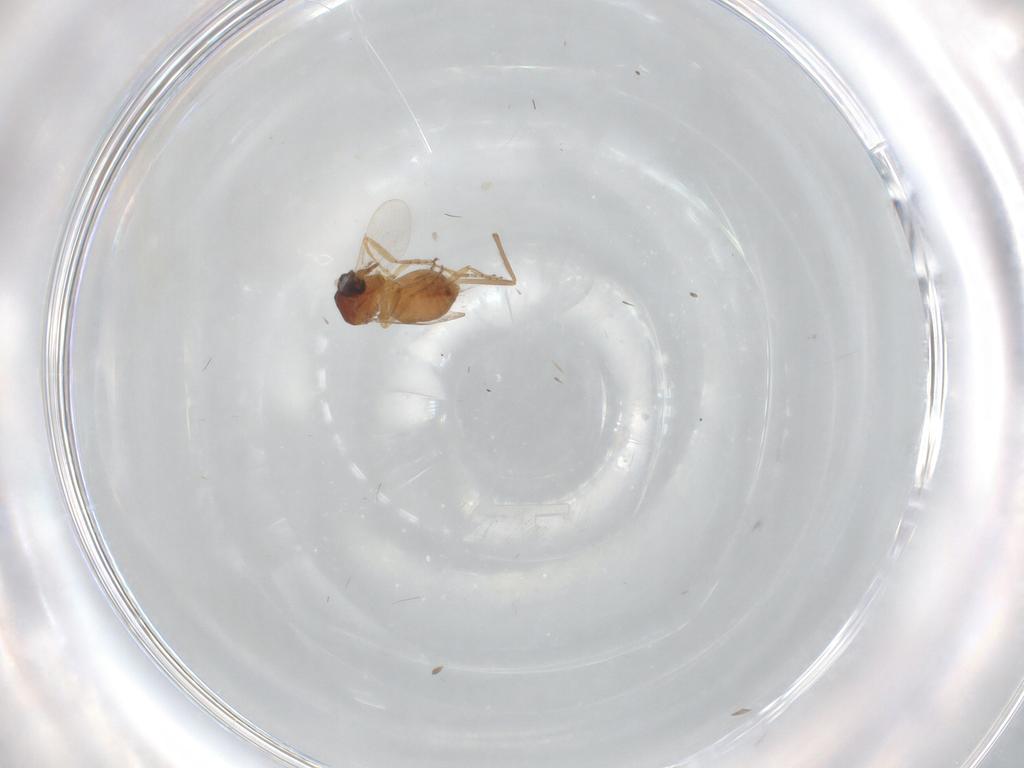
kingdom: Animalia
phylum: Arthropoda
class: Insecta
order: Diptera
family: Ceratopogonidae
